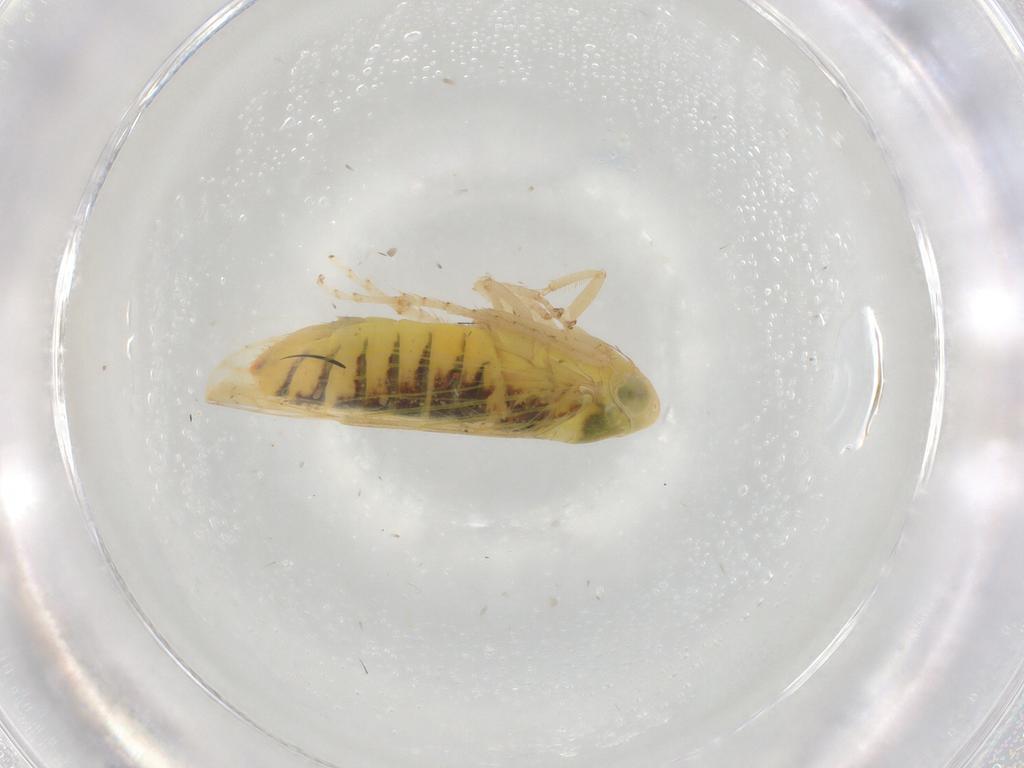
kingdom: Animalia
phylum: Arthropoda
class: Insecta
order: Hemiptera
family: Cicadellidae
